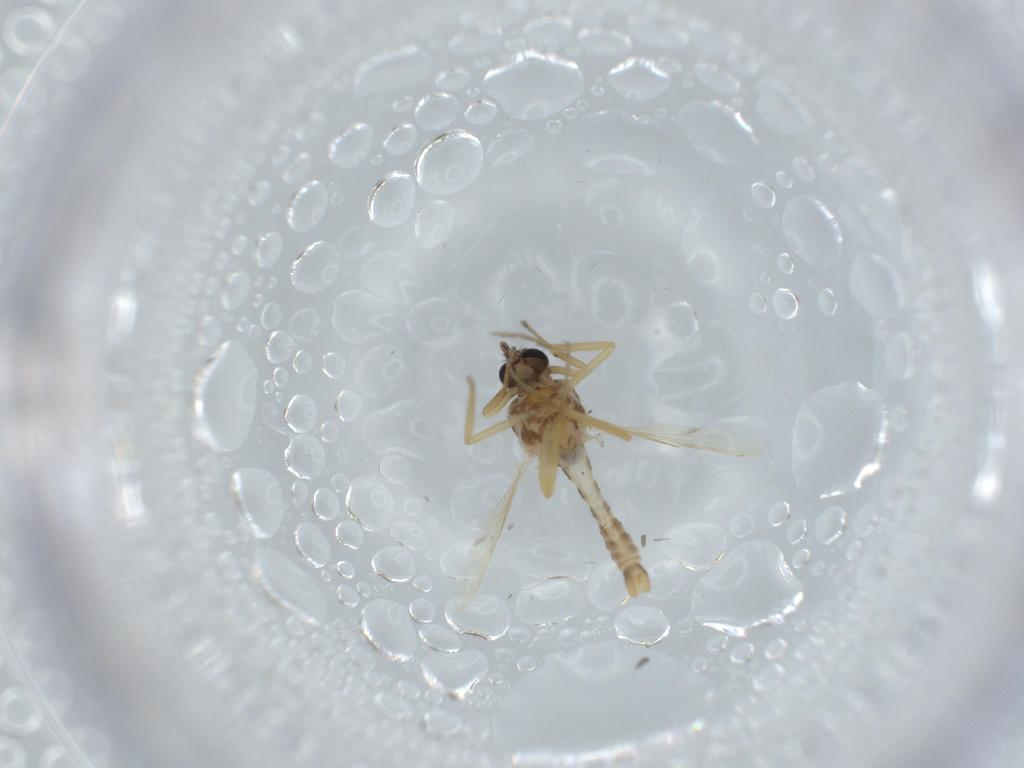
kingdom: Animalia
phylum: Arthropoda
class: Insecta
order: Diptera
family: Ceratopogonidae
